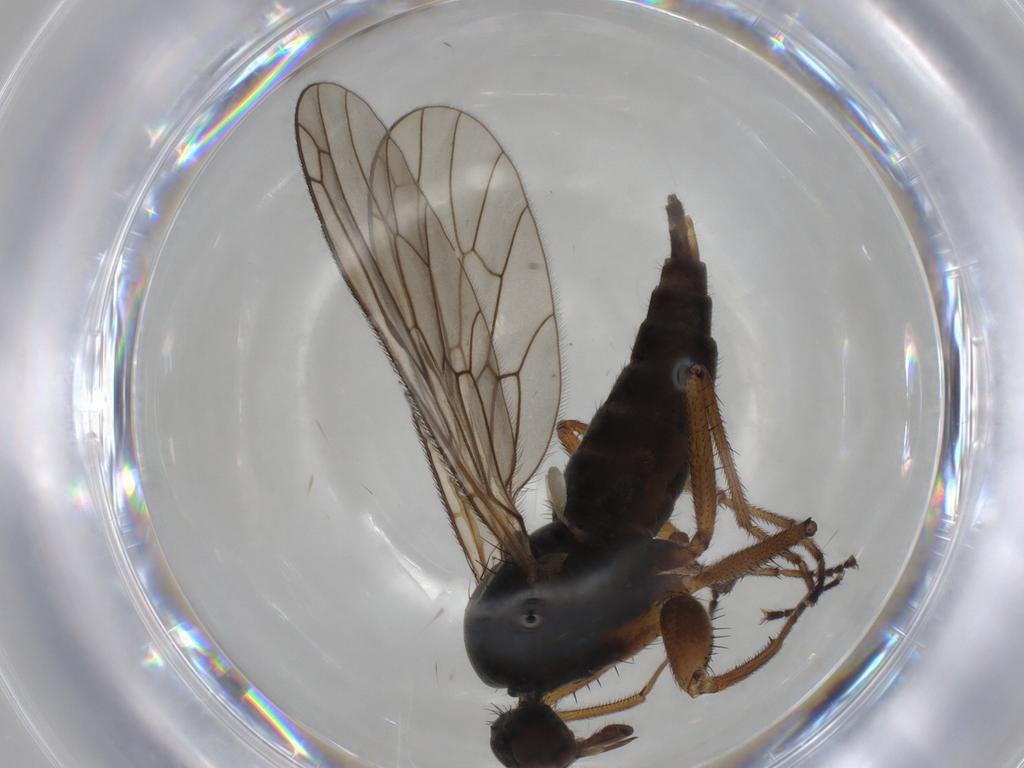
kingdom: Animalia
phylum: Arthropoda
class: Insecta
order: Diptera
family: Empididae
